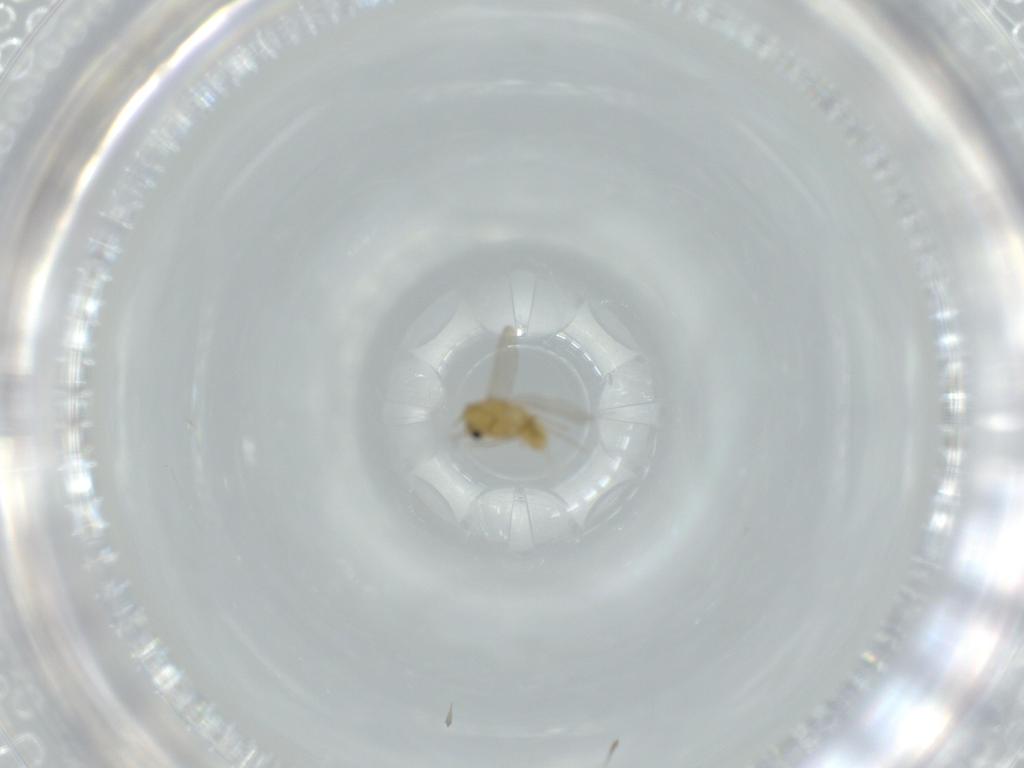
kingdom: Animalia
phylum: Arthropoda
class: Insecta
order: Diptera
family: Chironomidae
